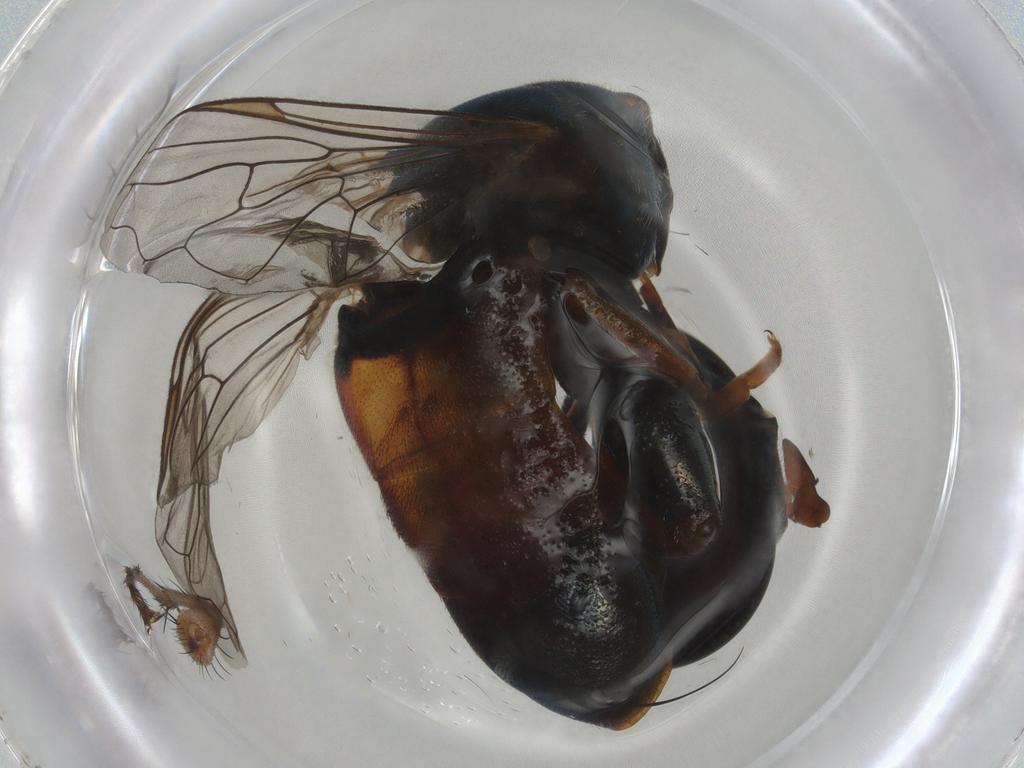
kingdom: Animalia
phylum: Arthropoda
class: Insecta
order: Diptera
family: Syrphidae
